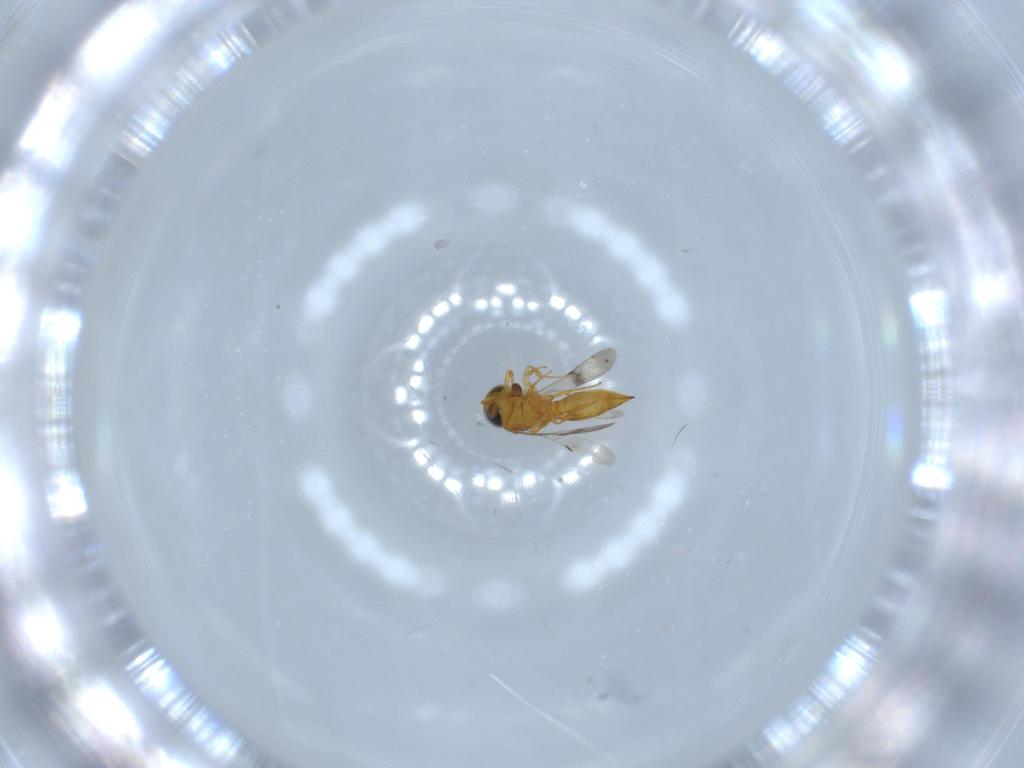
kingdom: Animalia
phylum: Arthropoda
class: Insecta
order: Hymenoptera
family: Scelionidae
